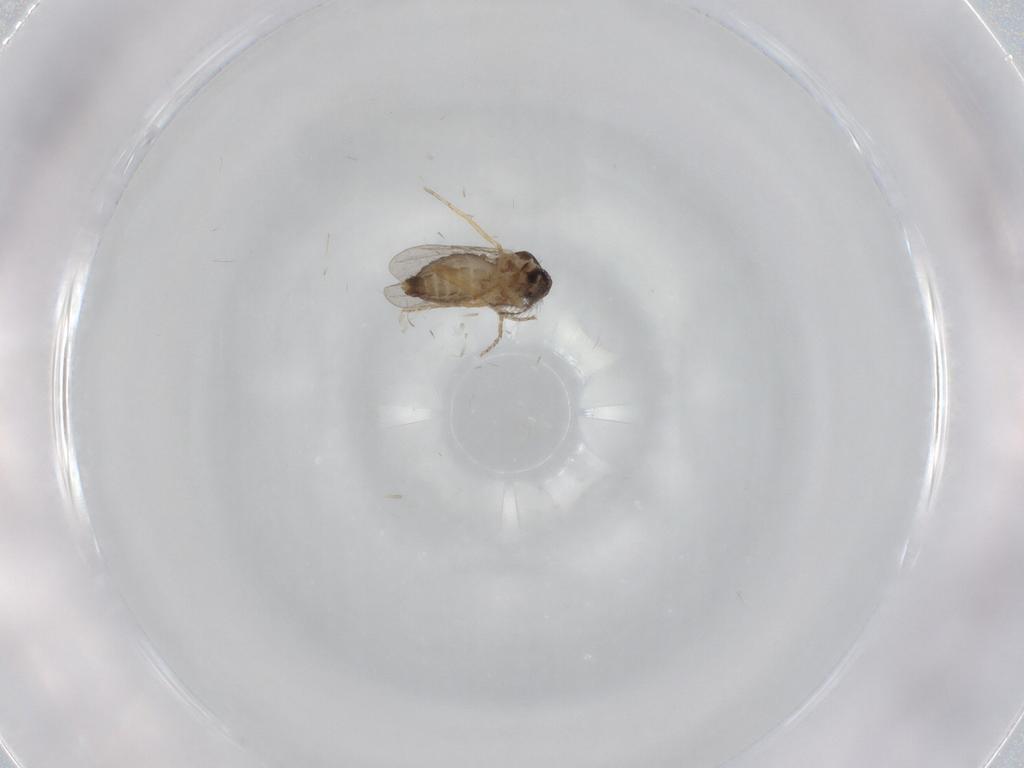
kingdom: Animalia
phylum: Arthropoda
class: Insecta
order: Diptera
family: Ceratopogonidae
